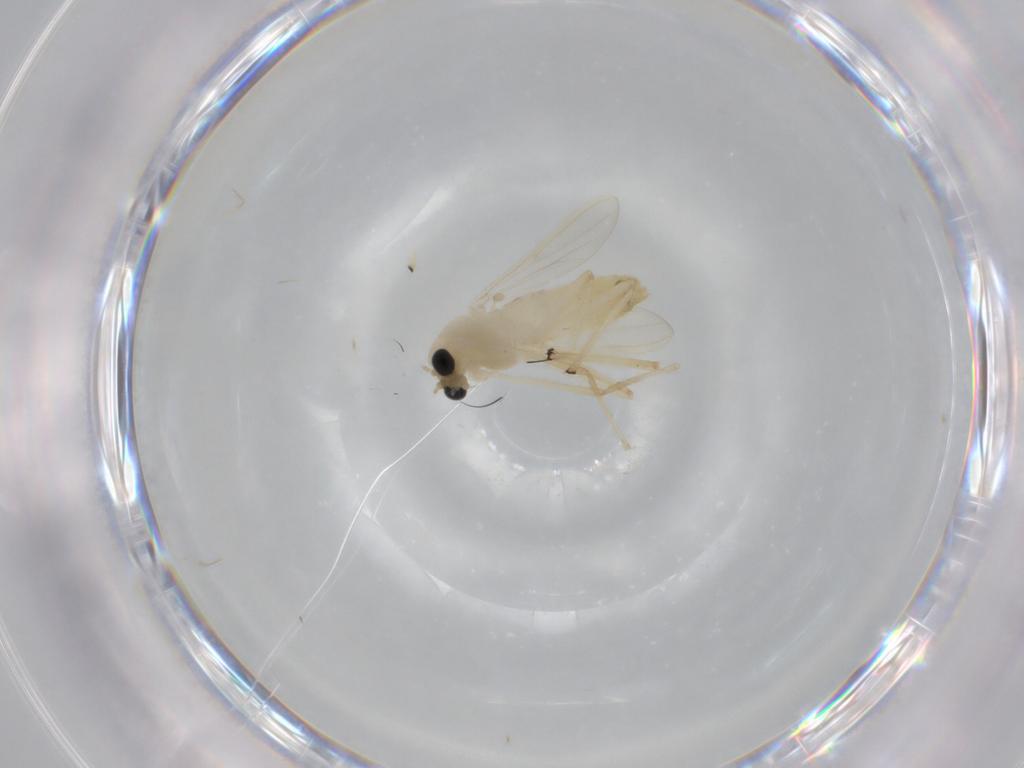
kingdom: Animalia
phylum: Arthropoda
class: Insecta
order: Diptera
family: Chironomidae
